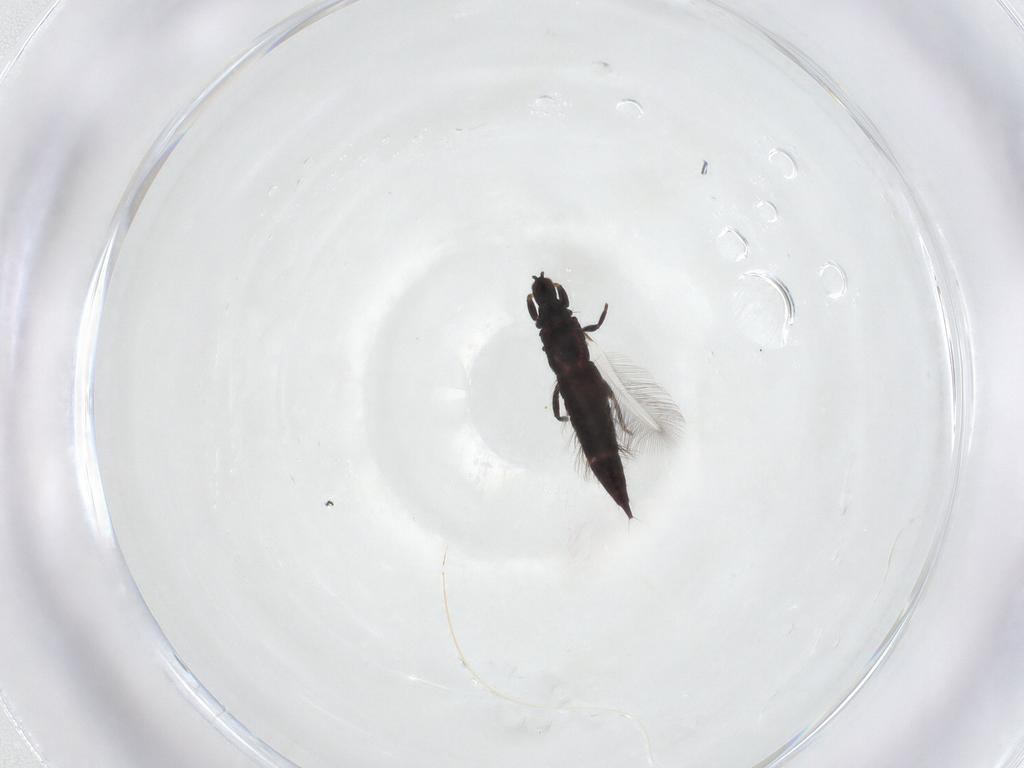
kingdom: Animalia
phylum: Arthropoda
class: Insecta
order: Thysanoptera
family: Phlaeothripidae
